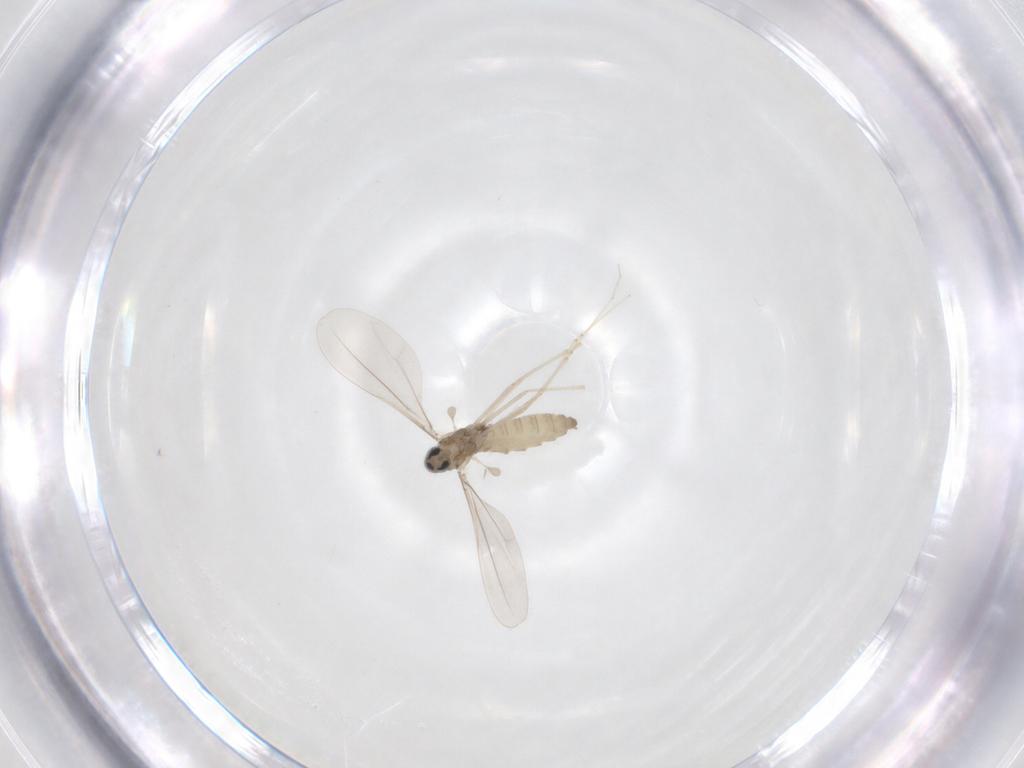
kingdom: Animalia
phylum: Arthropoda
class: Insecta
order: Diptera
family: Cecidomyiidae
